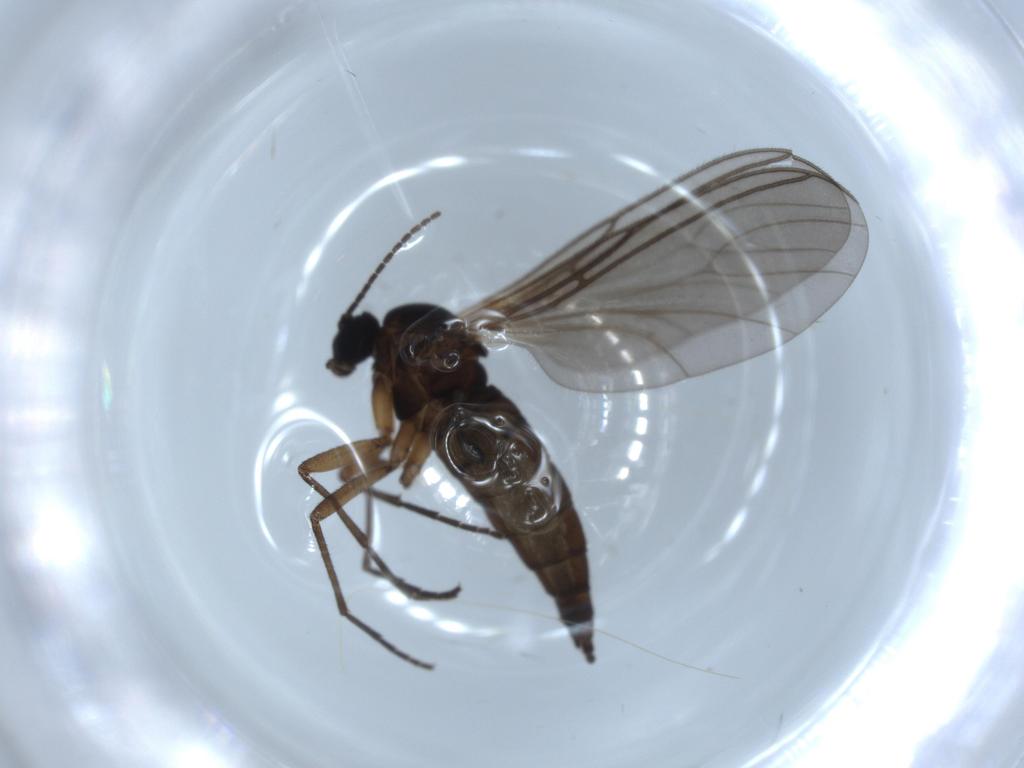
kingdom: Animalia
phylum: Arthropoda
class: Insecta
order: Diptera
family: Sciaridae
